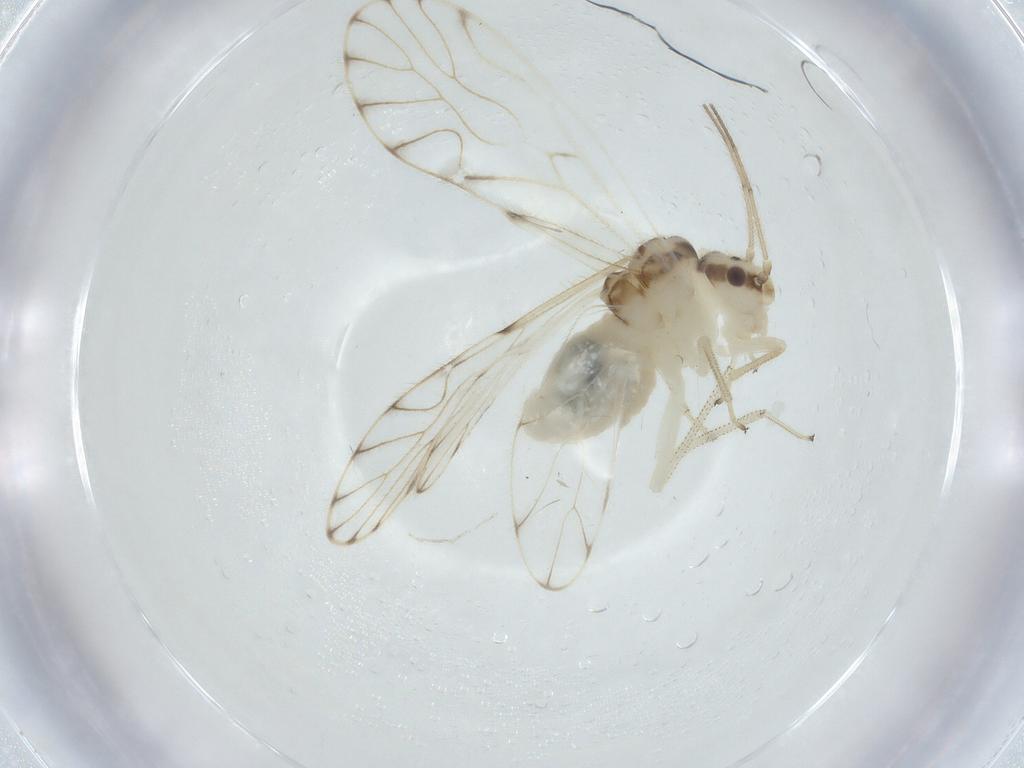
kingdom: Animalia
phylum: Arthropoda
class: Insecta
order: Psocodea
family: Philotarsidae
